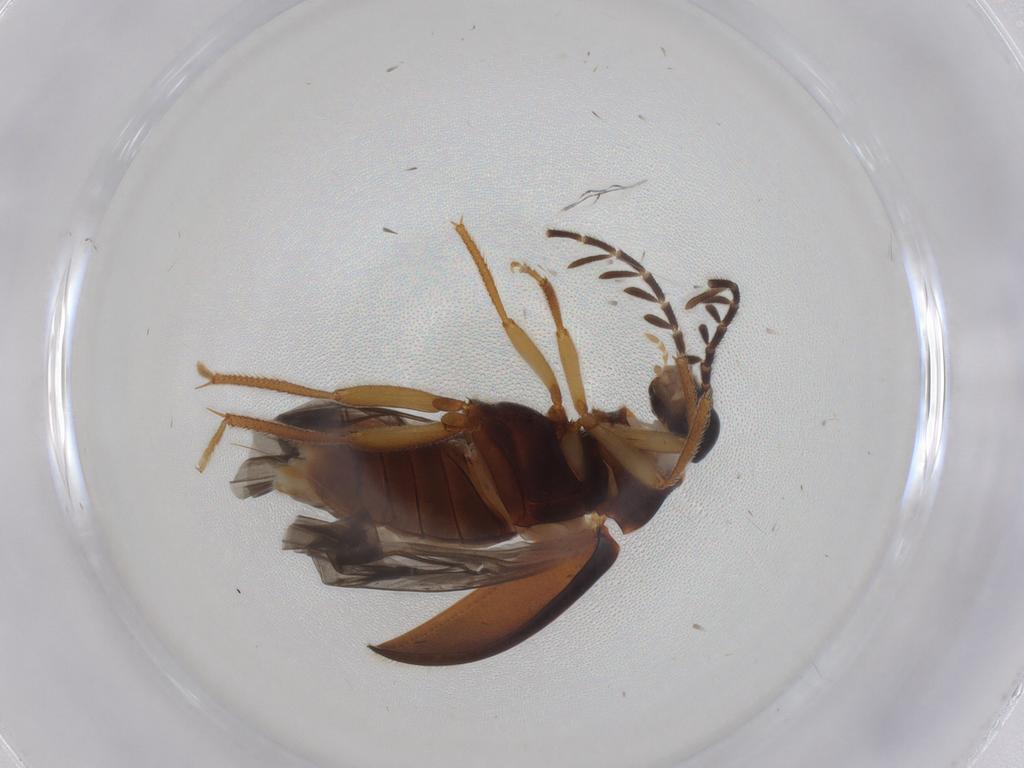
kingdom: Animalia
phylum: Arthropoda
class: Insecta
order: Coleoptera
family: Ptilodactylidae
